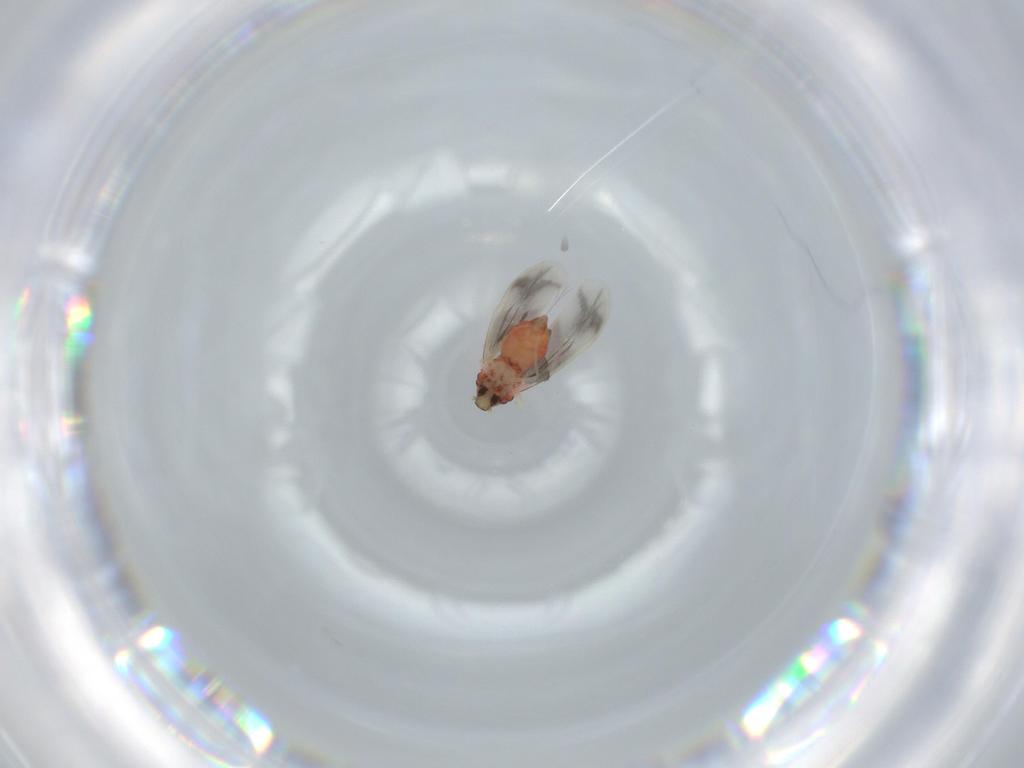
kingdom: Animalia
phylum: Arthropoda
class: Insecta
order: Hemiptera
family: Aleyrodidae
